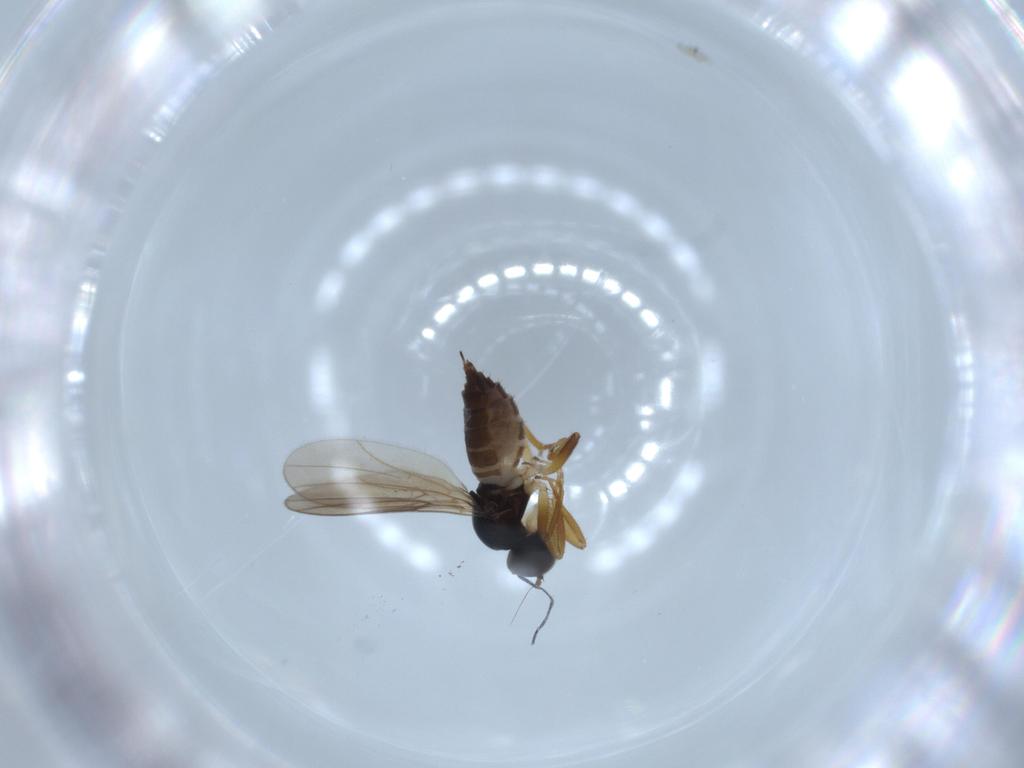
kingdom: Animalia
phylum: Arthropoda
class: Insecta
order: Diptera
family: Hybotidae
